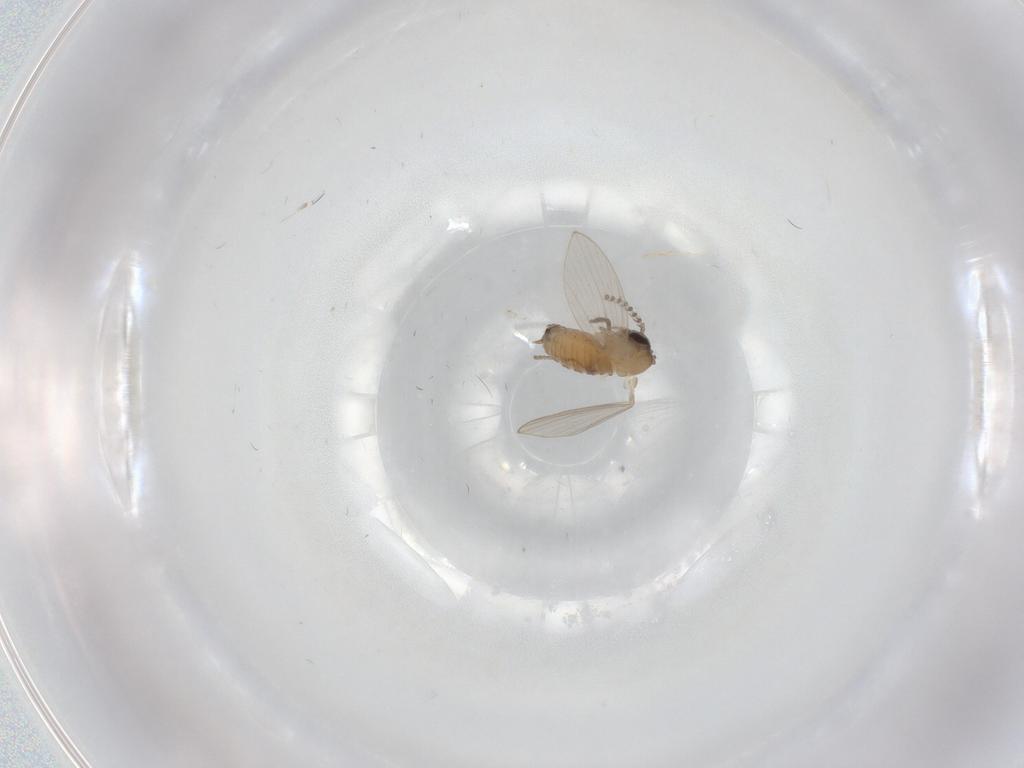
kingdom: Animalia
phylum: Arthropoda
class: Insecta
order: Diptera
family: Psychodidae
